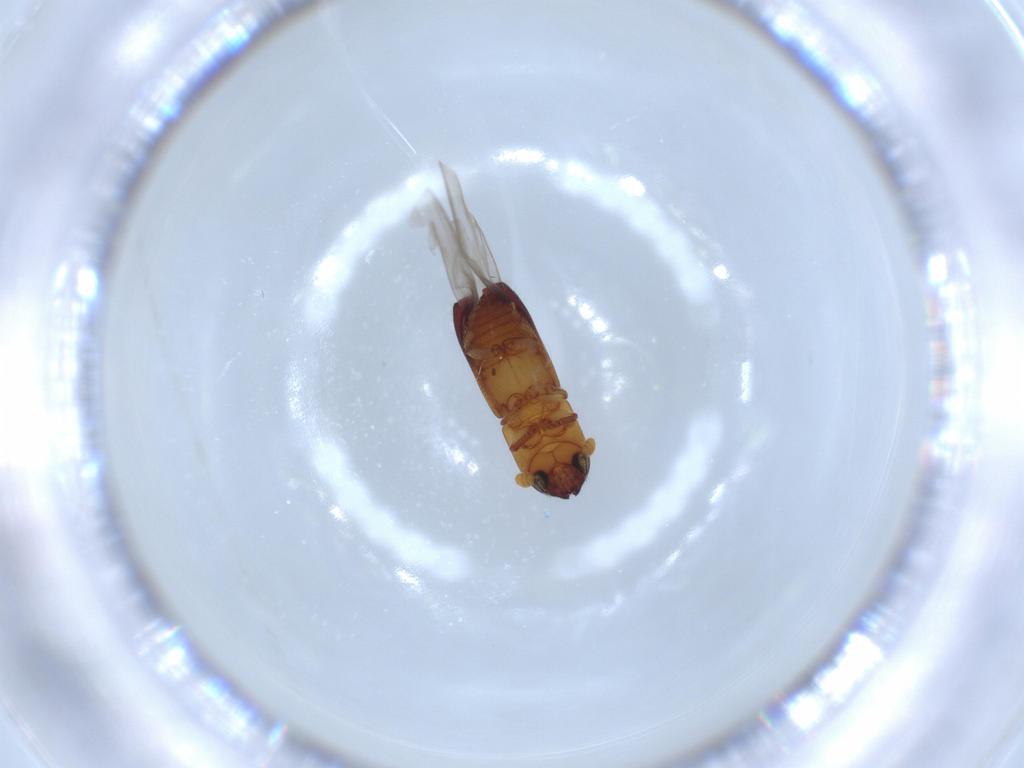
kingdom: Animalia
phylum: Arthropoda
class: Insecta
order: Coleoptera
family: Curculionidae
